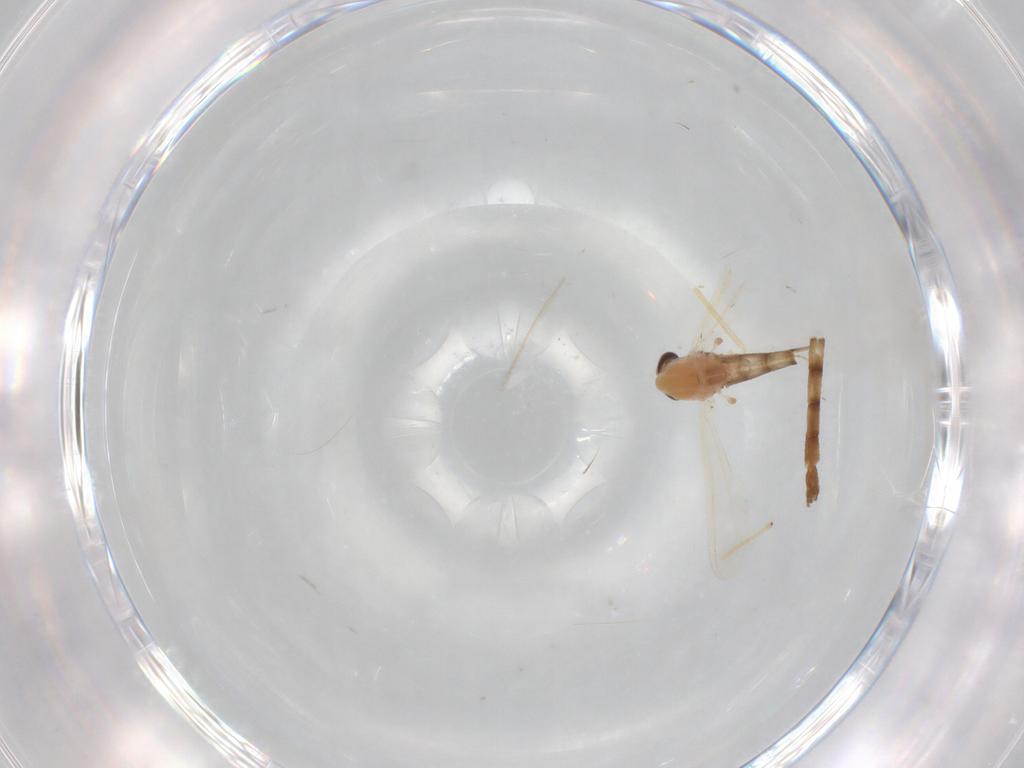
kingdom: Animalia
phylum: Arthropoda
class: Insecta
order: Diptera
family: Chironomidae
